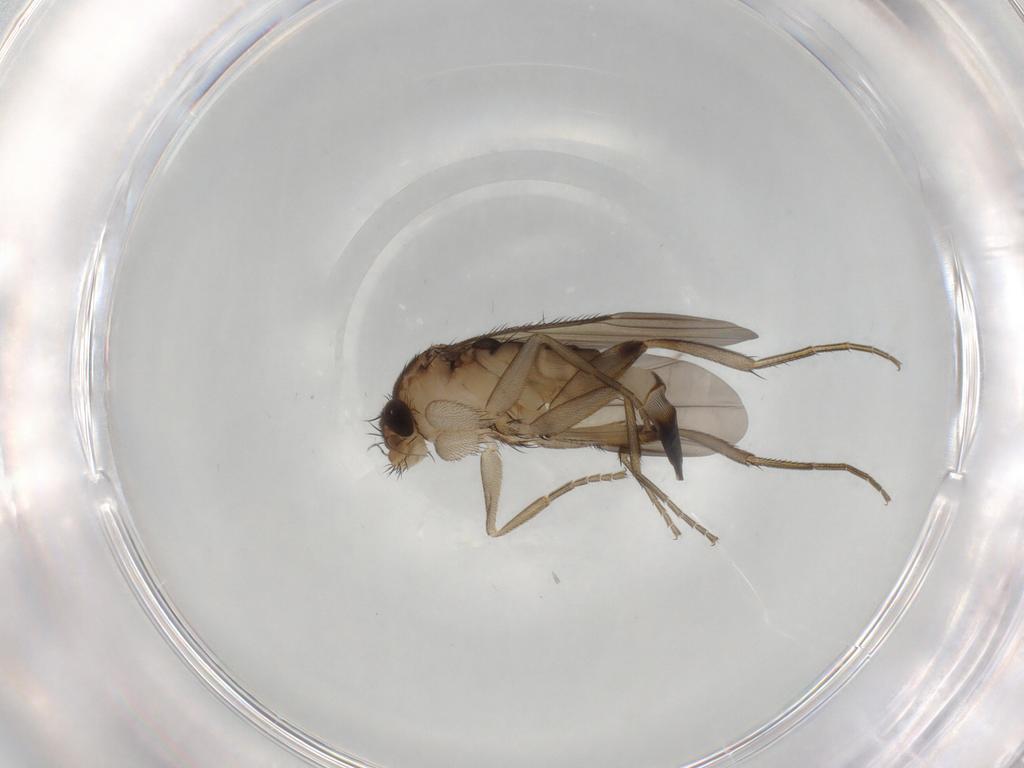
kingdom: Animalia
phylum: Arthropoda
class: Insecta
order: Diptera
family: Phoridae
